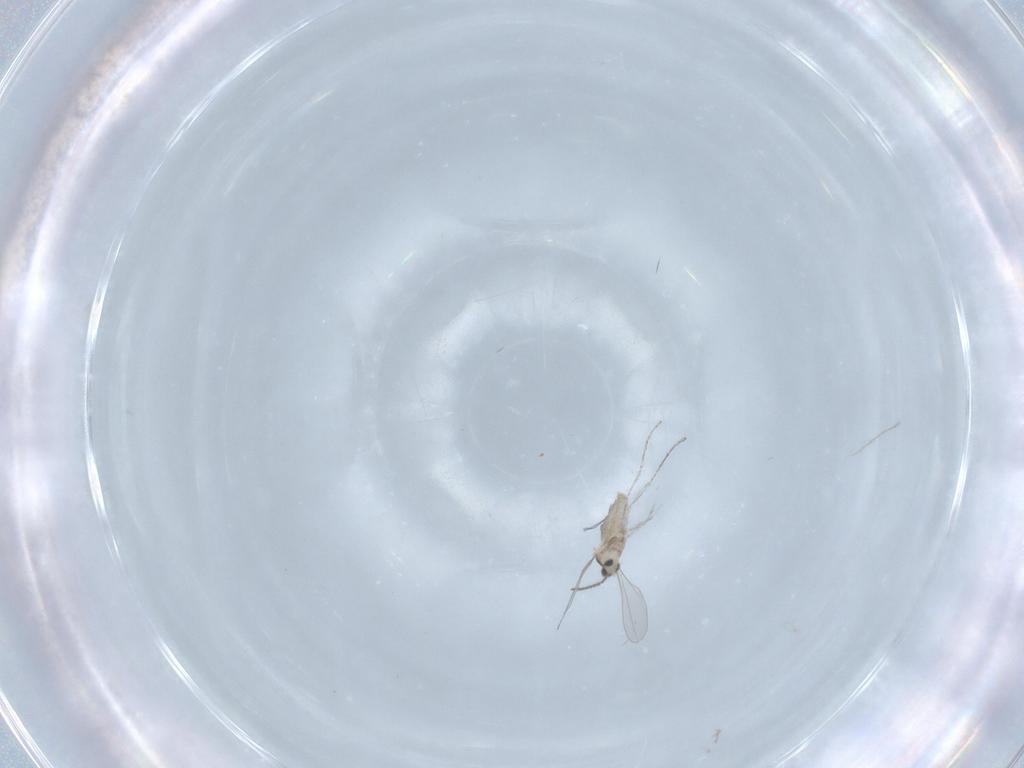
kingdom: Animalia
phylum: Arthropoda
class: Insecta
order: Diptera
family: Cecidomyiidae
